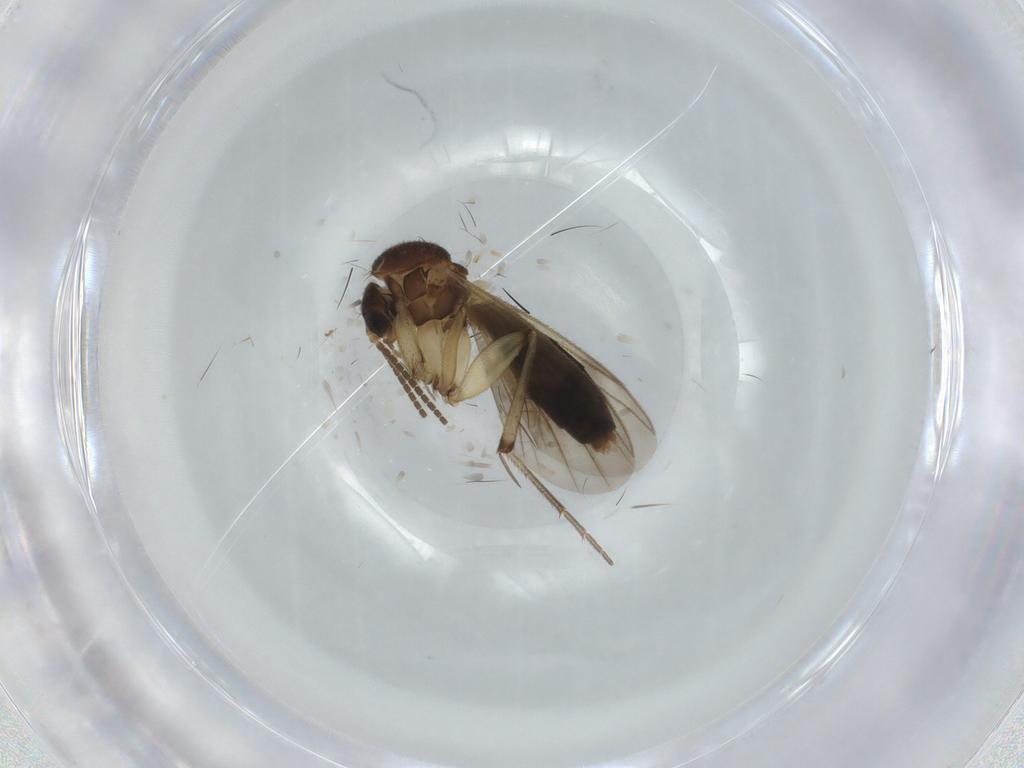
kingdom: Animalia
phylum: Arthropoda
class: Insecta
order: Diptera
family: Mycetophilidae
